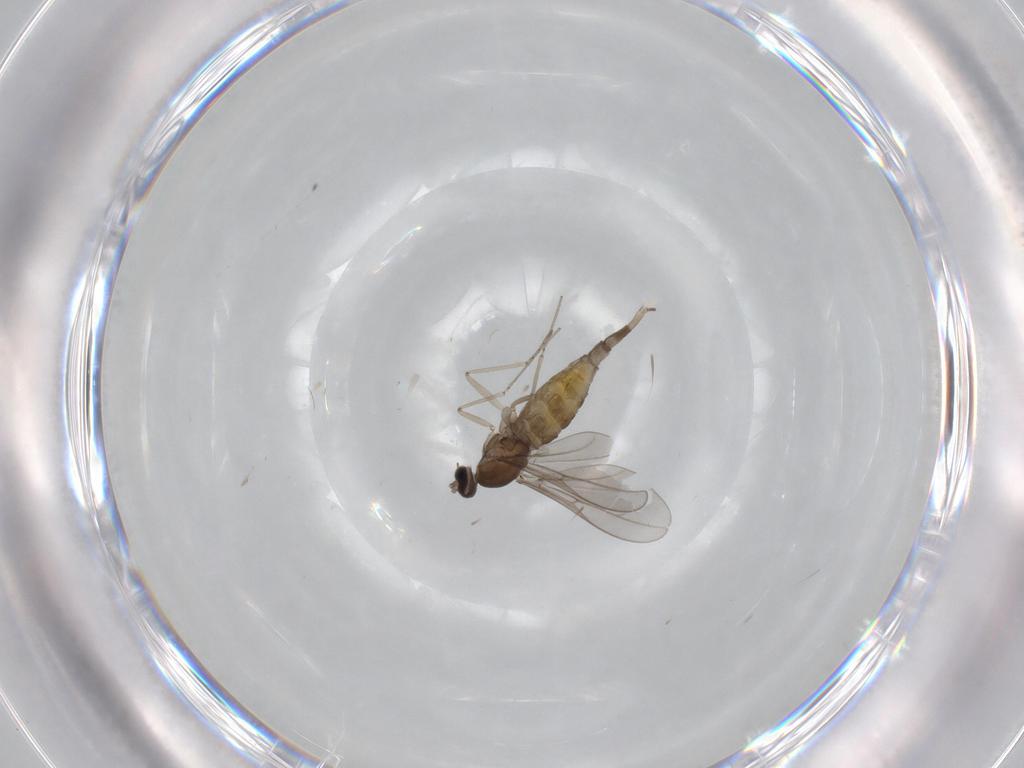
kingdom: Animalia
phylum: Arthropoda
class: Insecta
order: Diptera
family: Cecidomyiidae
